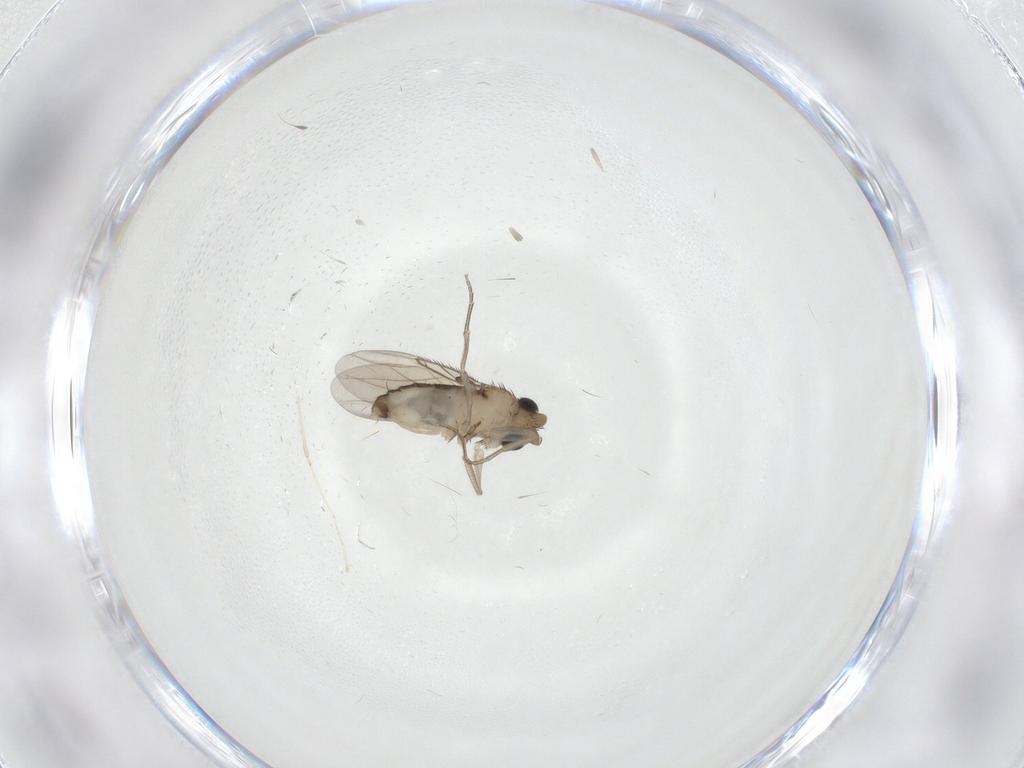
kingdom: Animalia
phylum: Arthropoda
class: Insecta
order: Diptera
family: Phoridae
